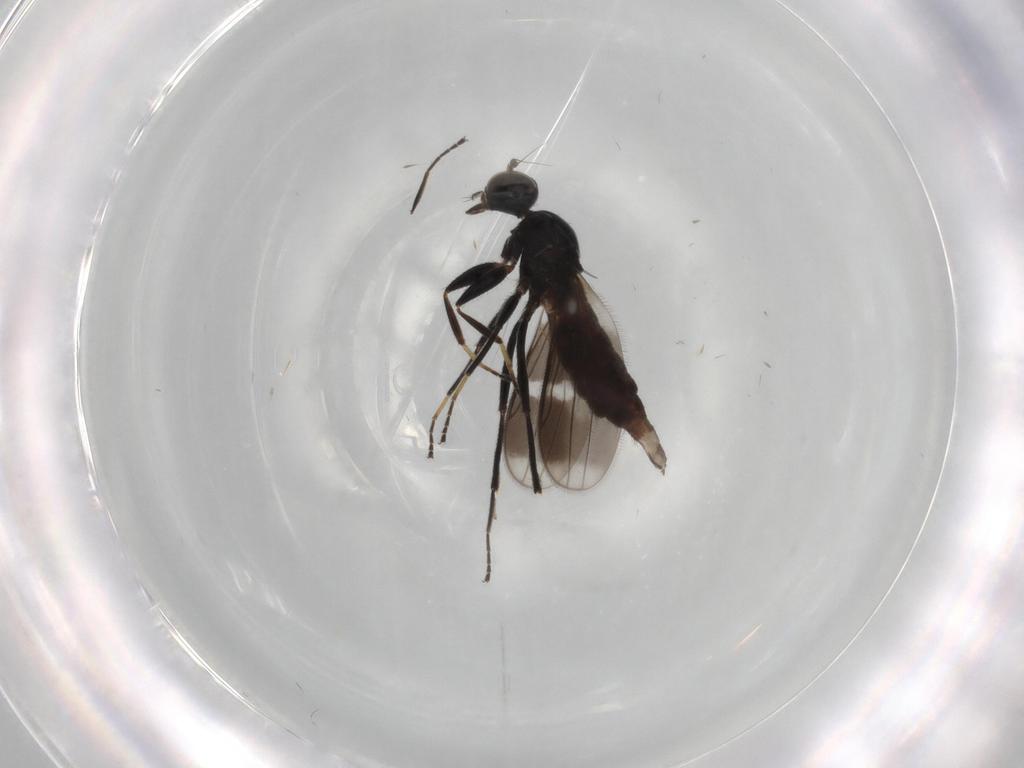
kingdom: Animalia
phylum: Arthropoda
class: Insecta
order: Diptera
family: Hybotidae
